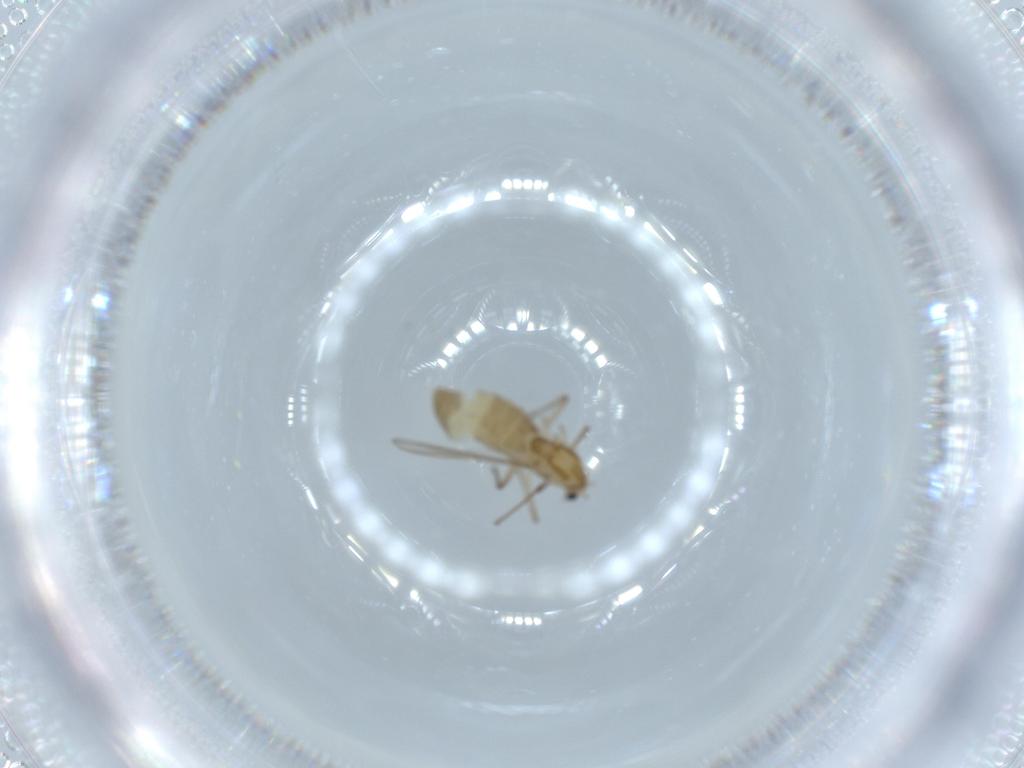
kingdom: Animalia
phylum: Arthropoda
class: Insecta
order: Diptera
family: Chironomidae
